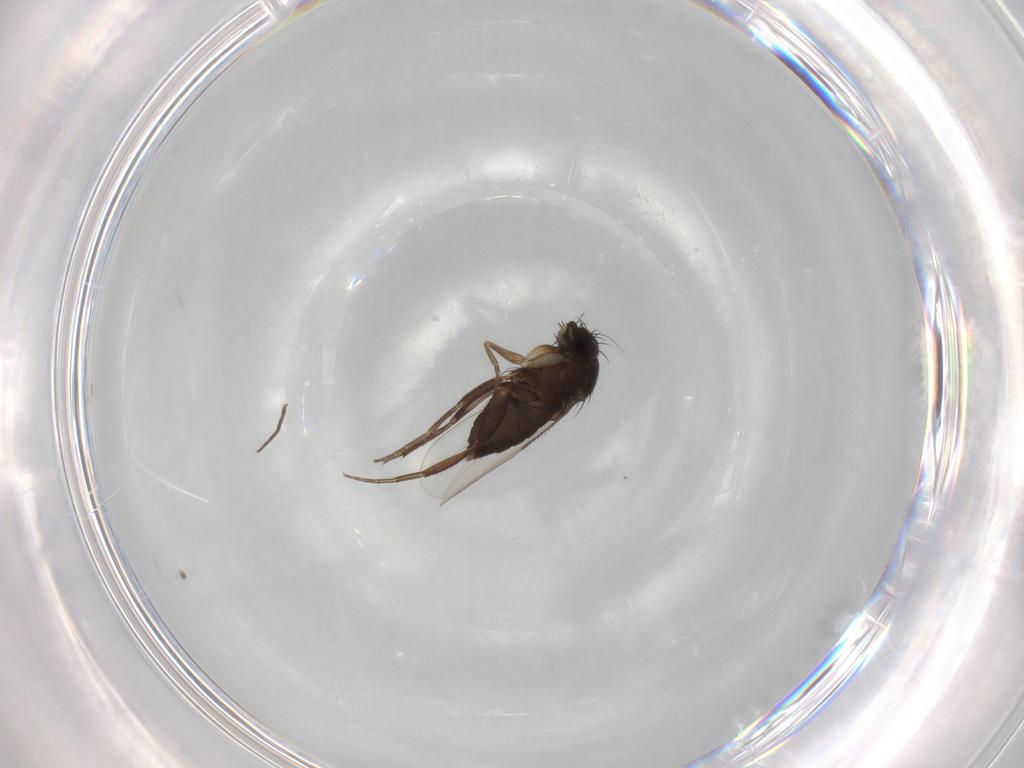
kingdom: Animalia
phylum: Arthropoda
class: Insecta
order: Diptera
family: Phoridae
